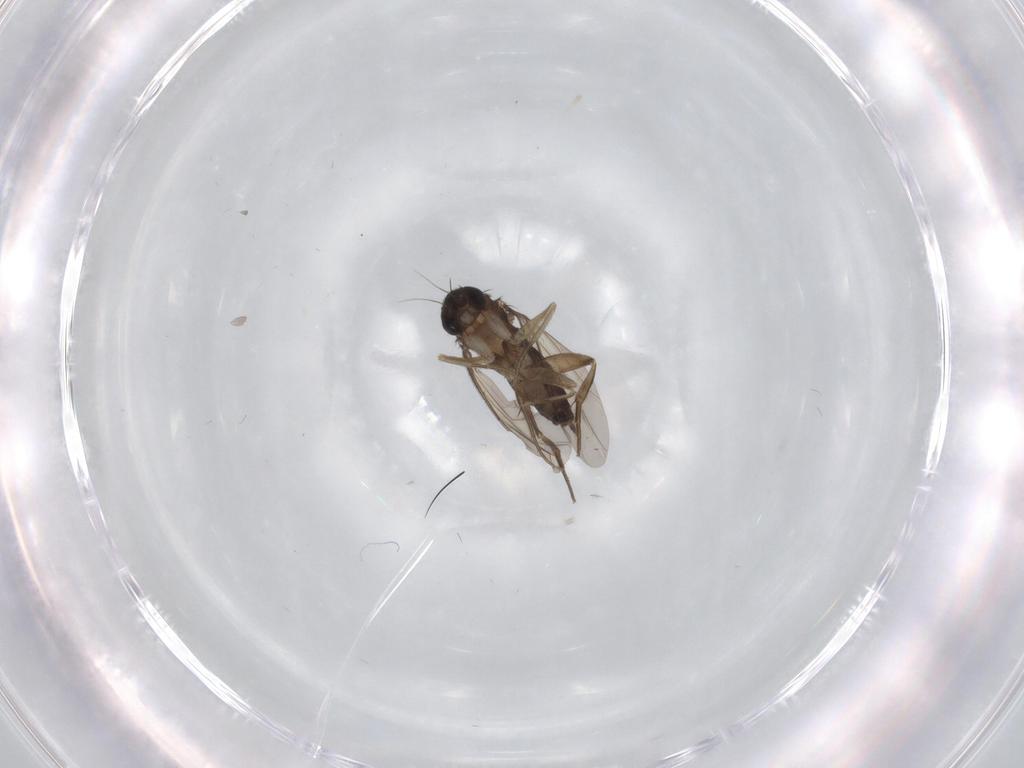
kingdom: Animalia
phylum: Arthropoda
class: Insecta
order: Diptera
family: Phoridae
